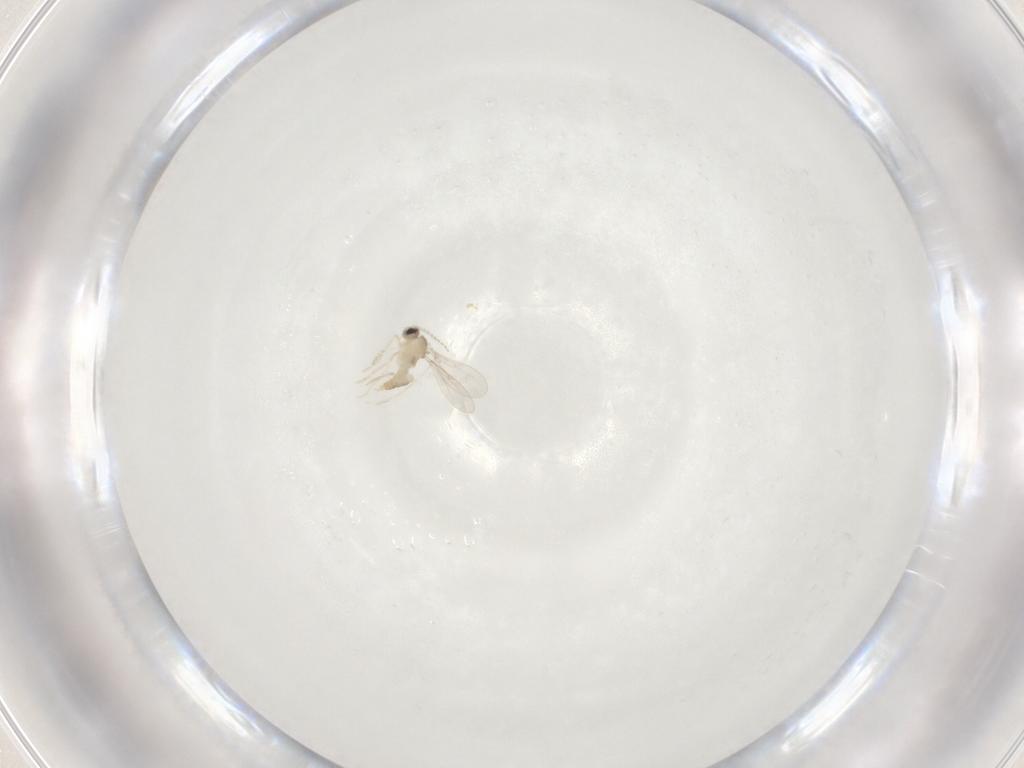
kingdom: Animalia
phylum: Arthropoda
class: Insecta
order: Diptera
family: Cecidomyiidae
